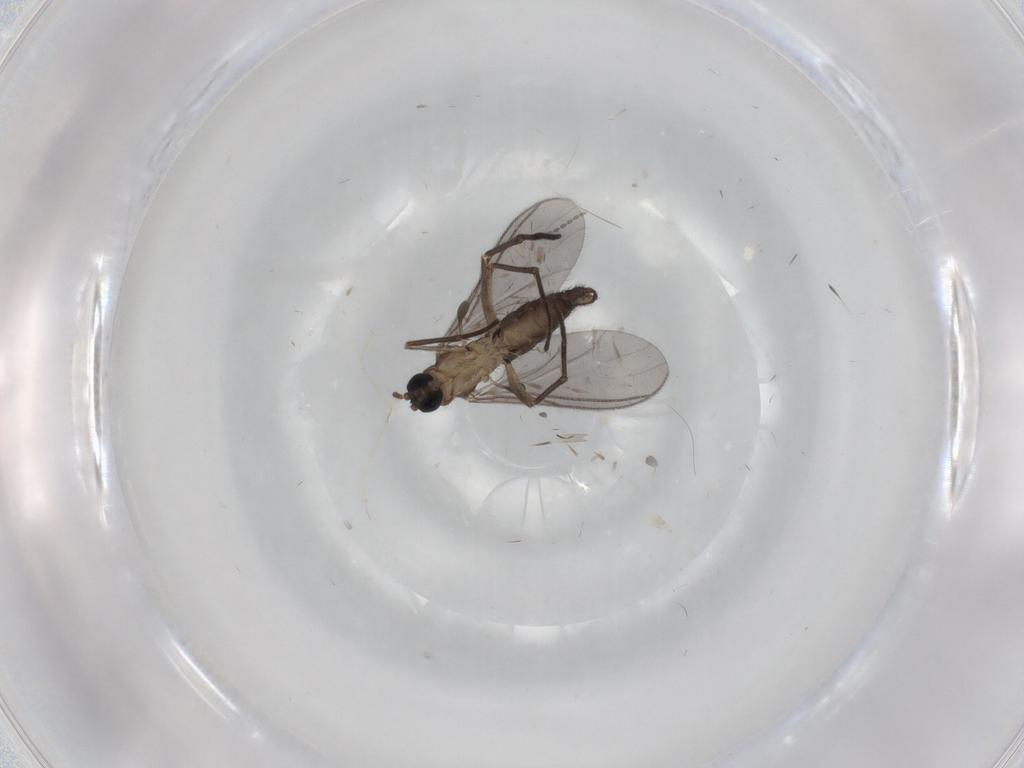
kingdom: Animalia
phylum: Arthropoda
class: Insecta
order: Diptera
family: Sciaridae
